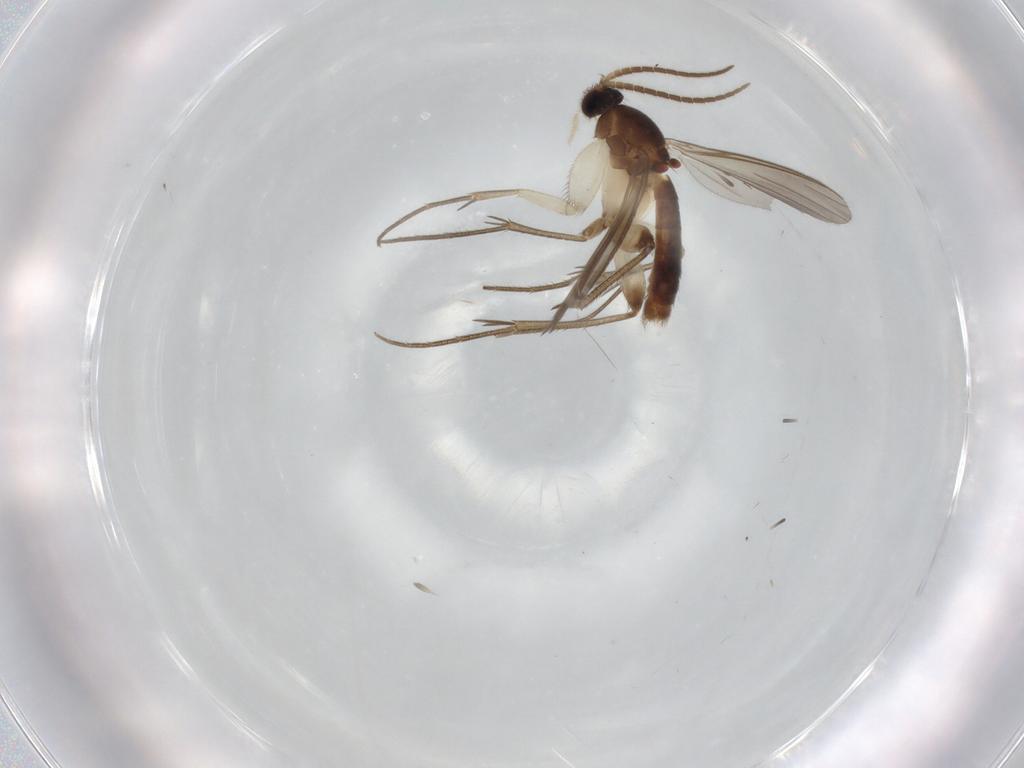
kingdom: Animalia
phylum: Arthropoda
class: Insecta
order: Diptera
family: Mycetophilidae
